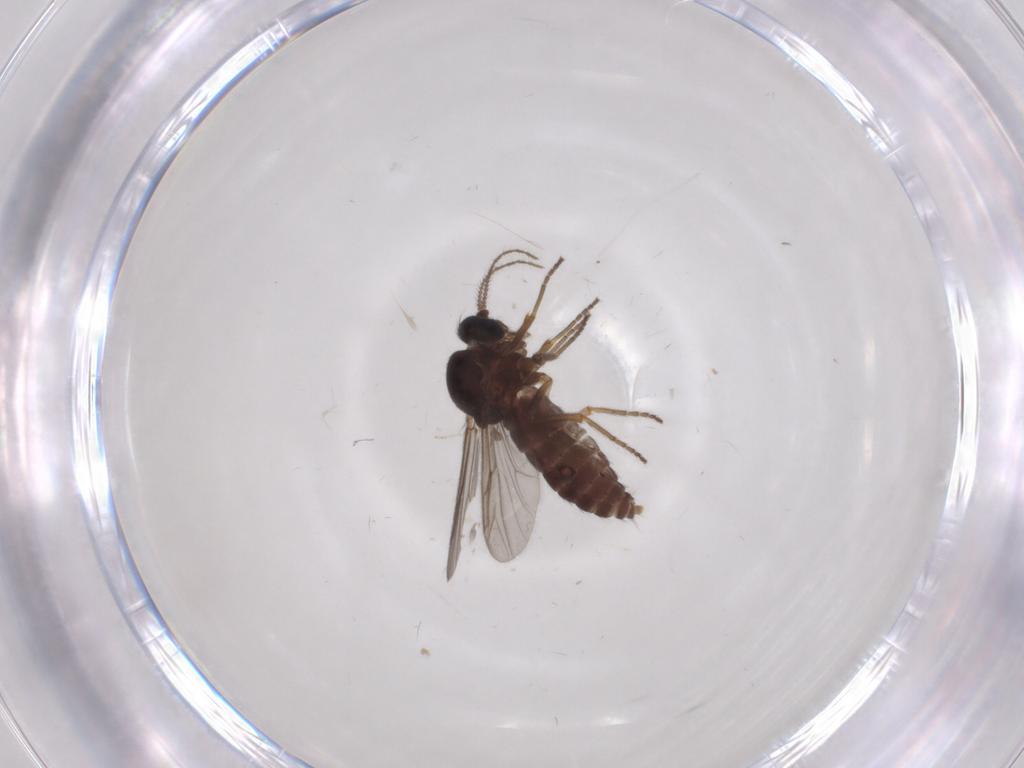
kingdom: Animalia
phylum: Arthropoda
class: Insecta
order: Diptera
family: Ceratopogonidae
